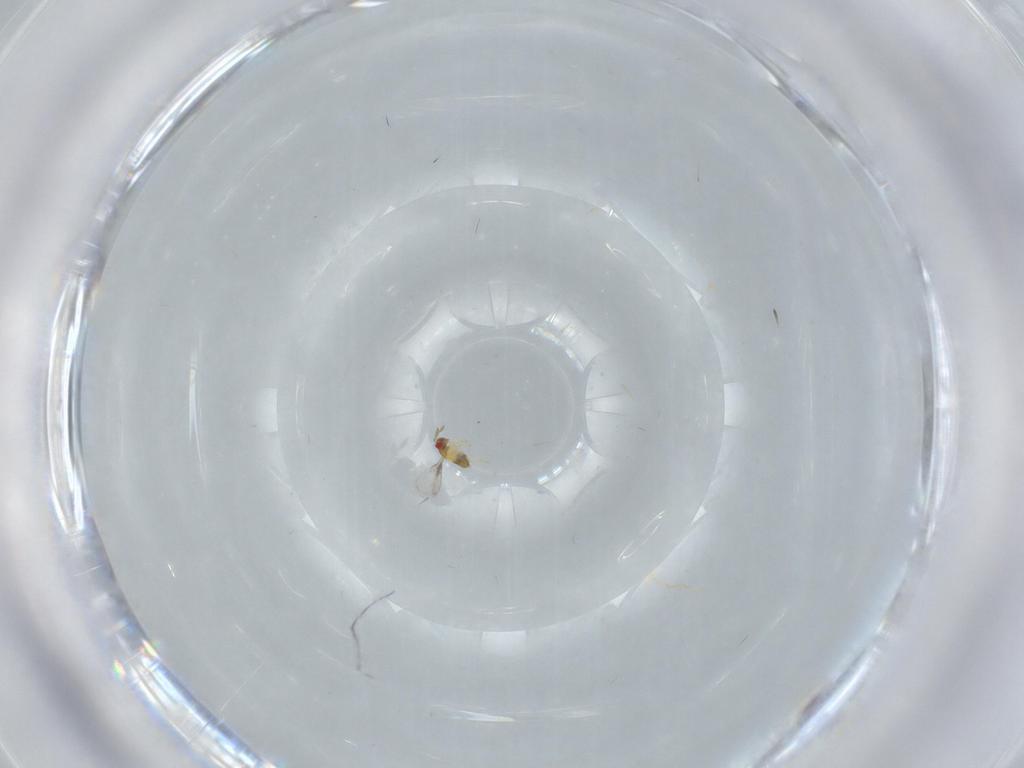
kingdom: Animalia
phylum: Arthropoda
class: Insecta
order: Hymenoptera
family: Trichogrammatidae
